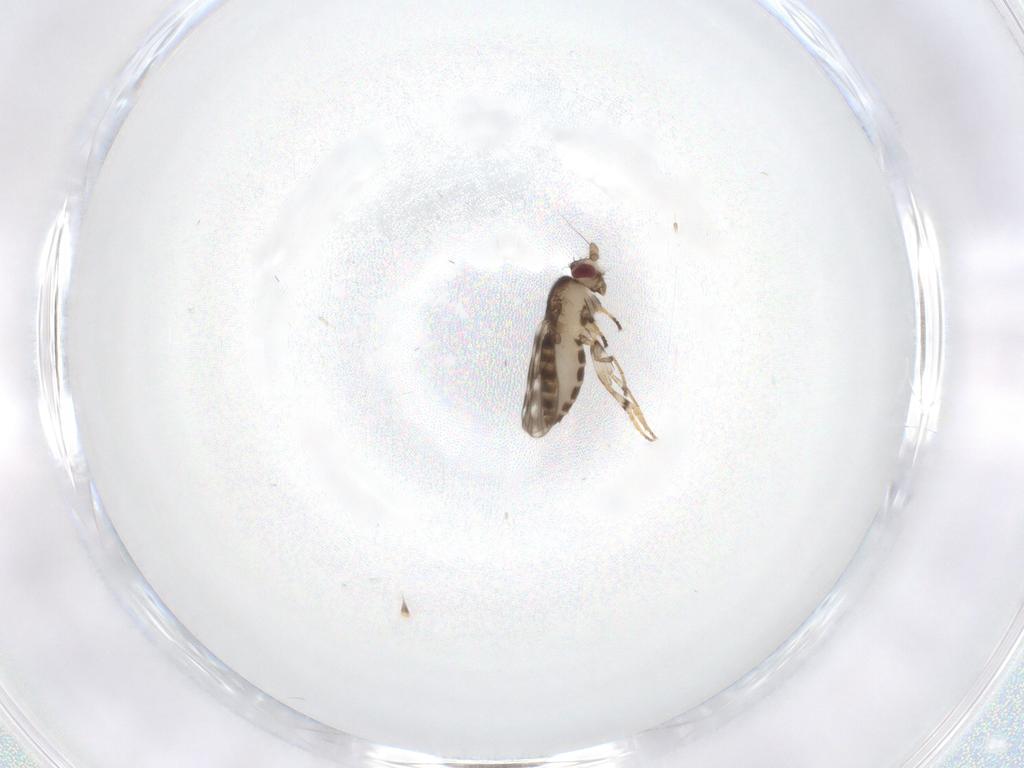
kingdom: Animalia
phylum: Arthropoda
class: Insecta
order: Diptera
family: Sphaeroceridae
